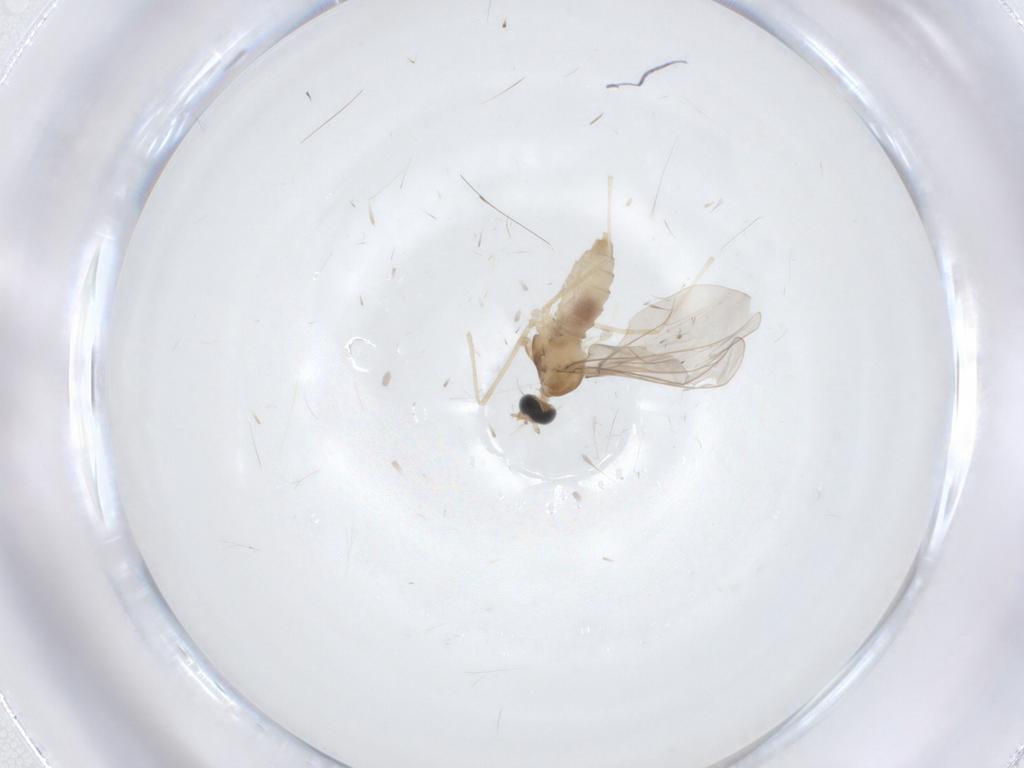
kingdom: Animalia
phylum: Arthropoda
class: Insecta
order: Diptera
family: Cecidomyiidae
